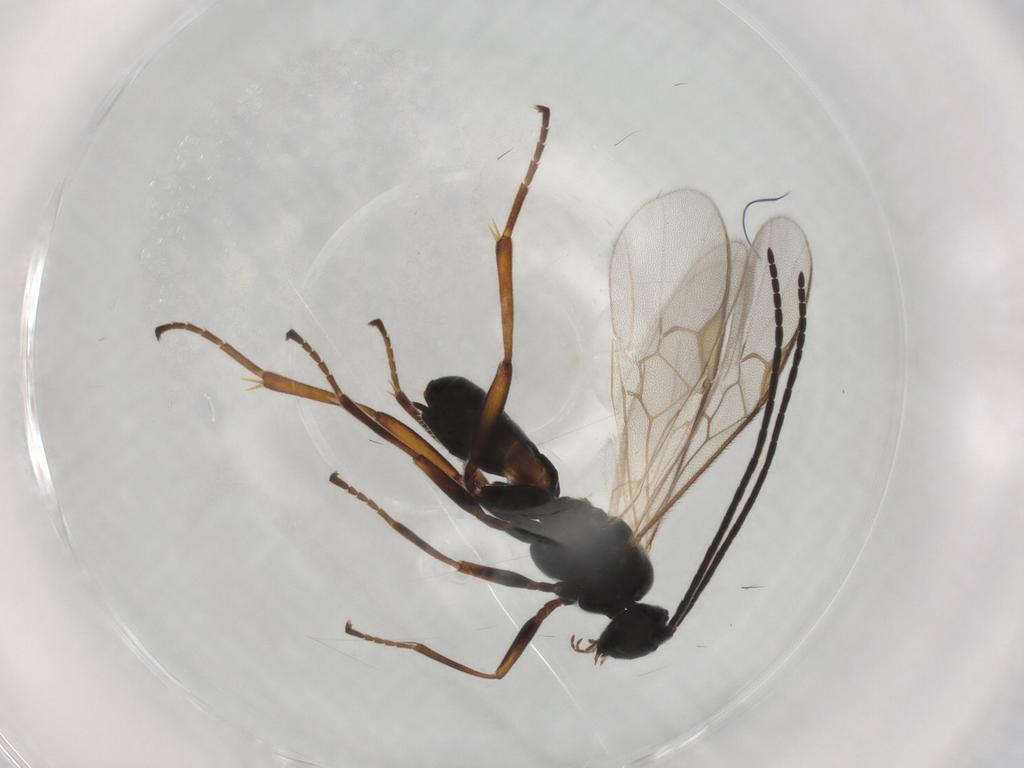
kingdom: Animalia
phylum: Arthropoda
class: Insecta
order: Hymenoptera
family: Braconidae
